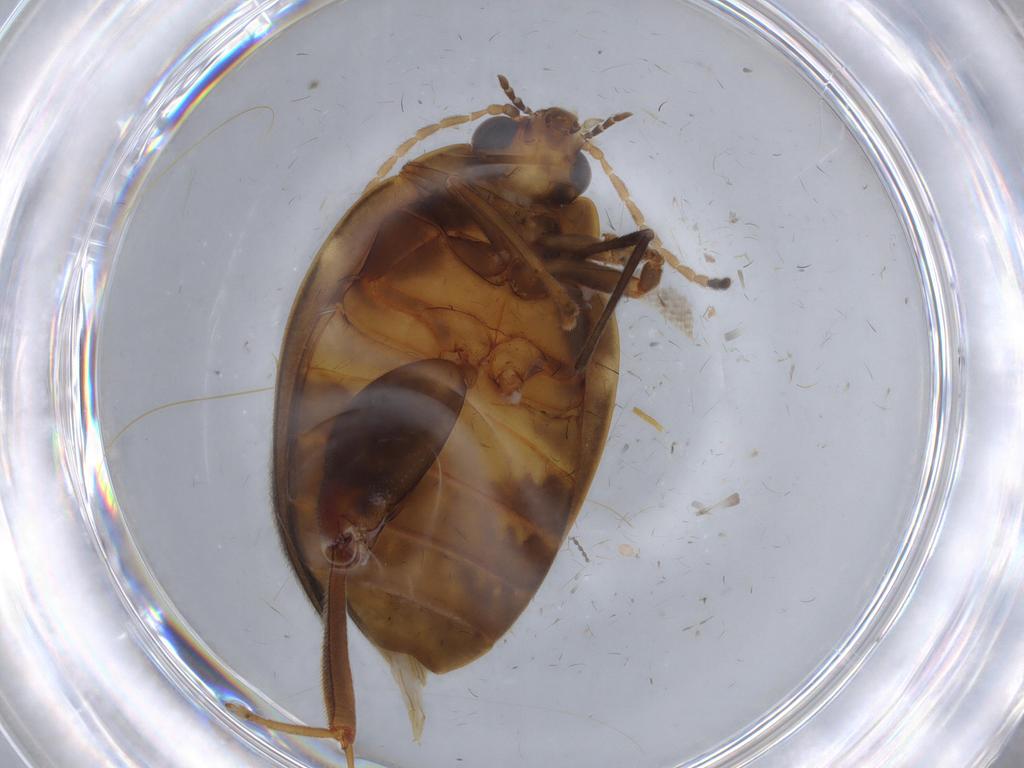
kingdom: Animalia
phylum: Arthropoda
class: Insecta
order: Coleoptera
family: Scirtidae
